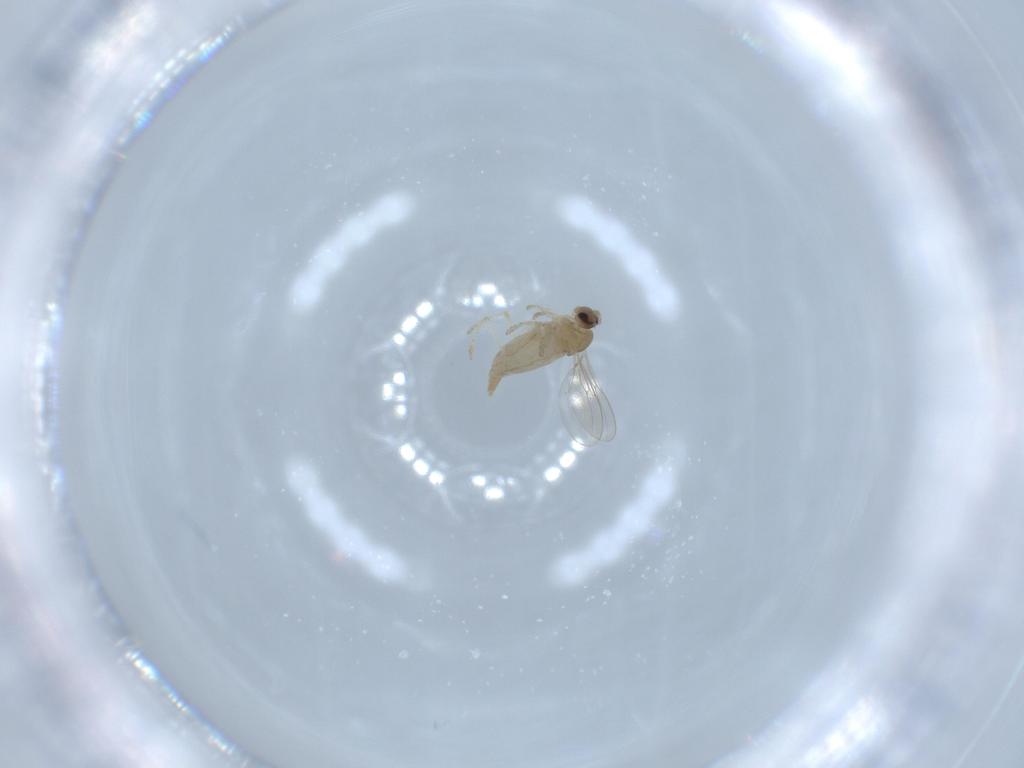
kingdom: Animalia
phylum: Arthropoda
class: Insecta
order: Diptera
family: Cecidomyiidae
